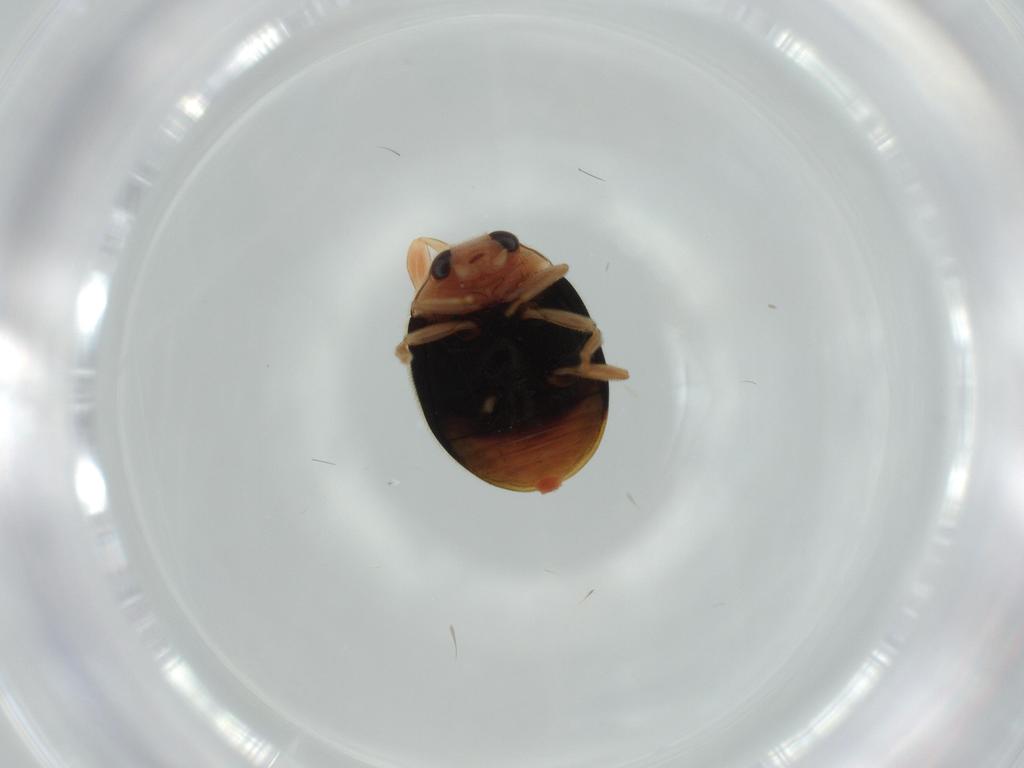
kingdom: Animalia
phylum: Arthropoda
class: Insecta
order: Coleoptera
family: Coccinellidae
